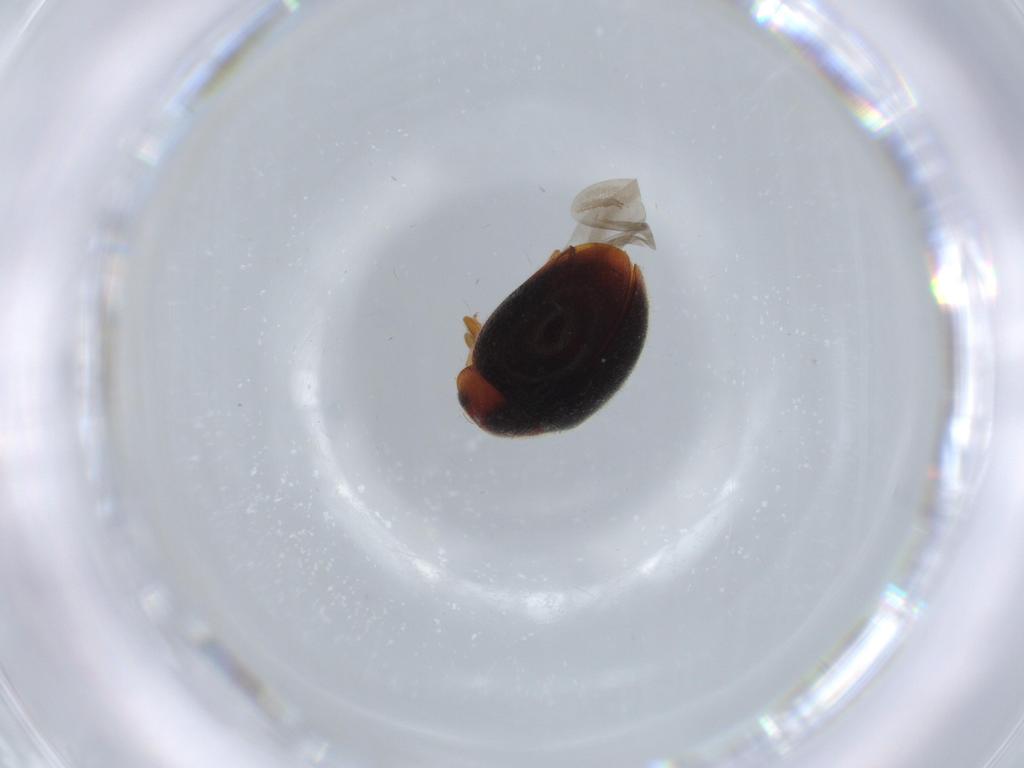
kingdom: Animalia
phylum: Arthropoda
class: Insecta
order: Coleoptera
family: Coccinellidae
